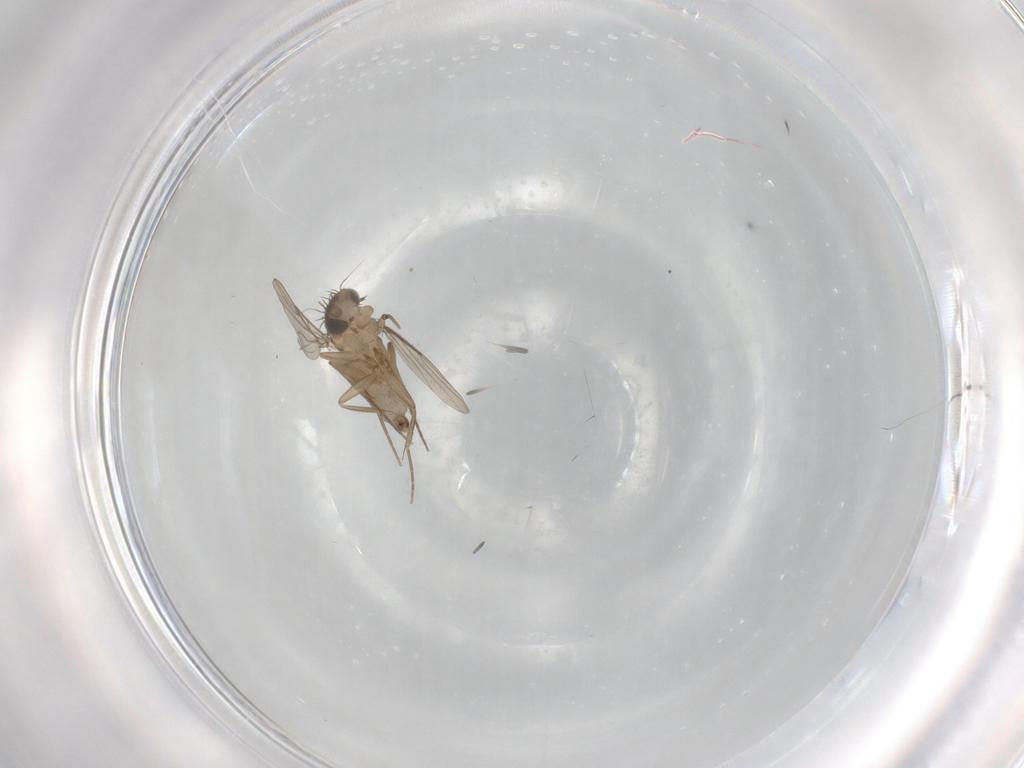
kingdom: Animalia
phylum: Arthropoda
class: Insecta
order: Diptera
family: Phoridae
